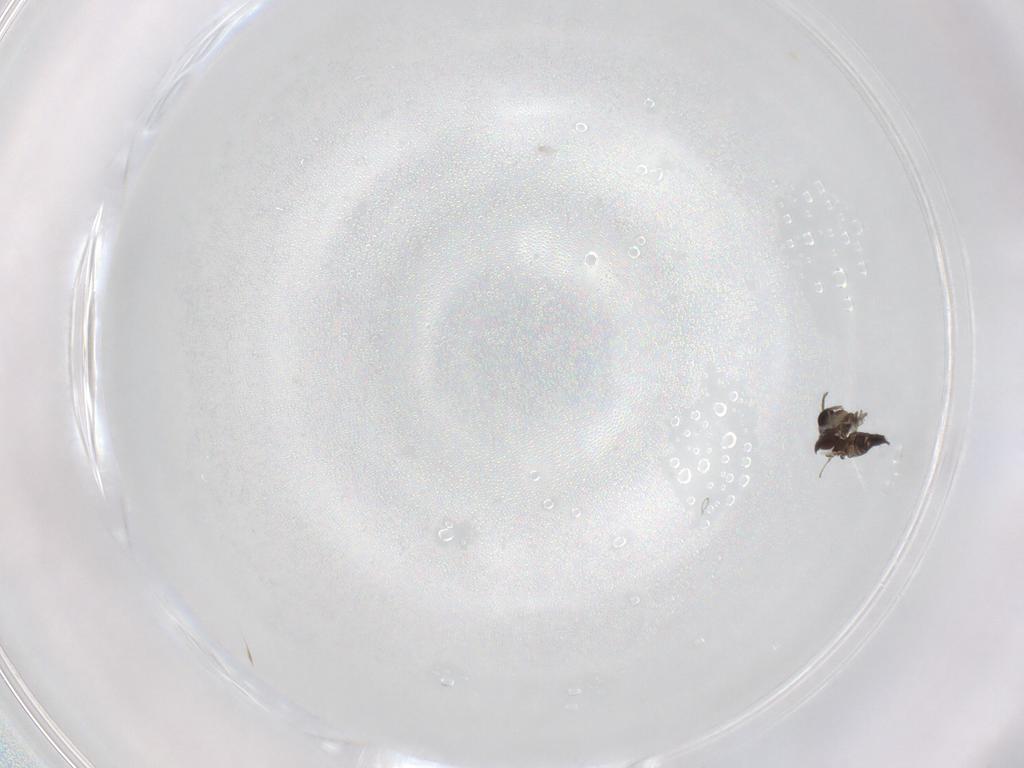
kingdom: Animalia
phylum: Arthropoda
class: Insecta
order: Diptera
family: Ceratopogonidae
